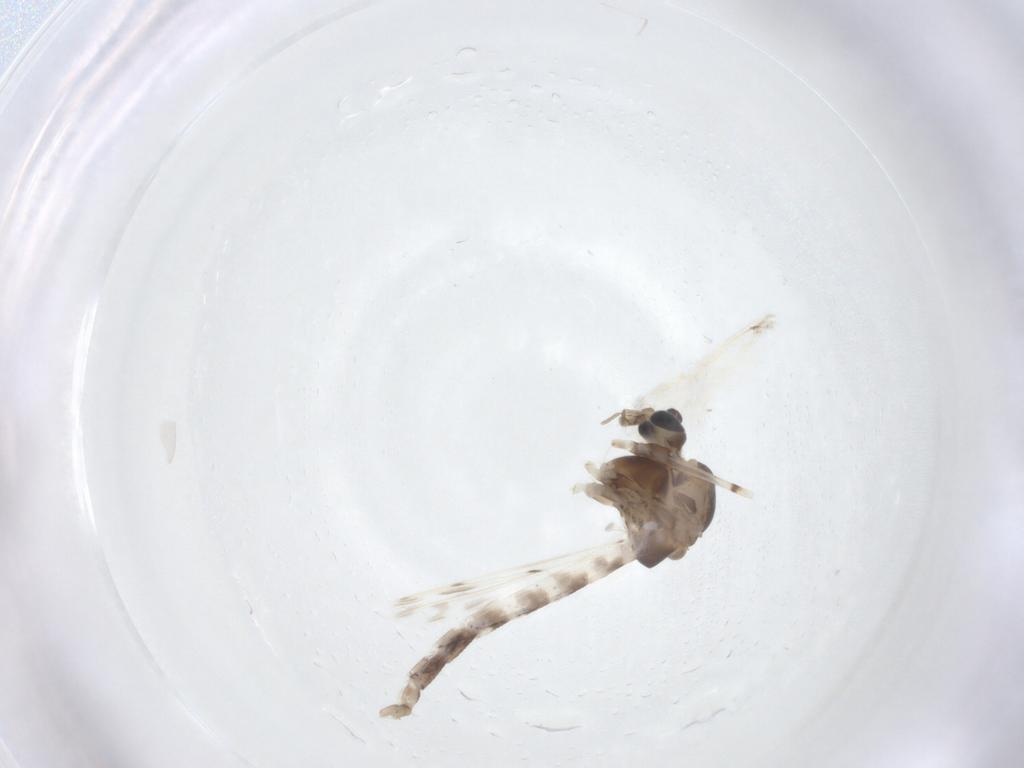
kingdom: Animalia
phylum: Arthropoda
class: Insecta
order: Diptera
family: Chironomidae
